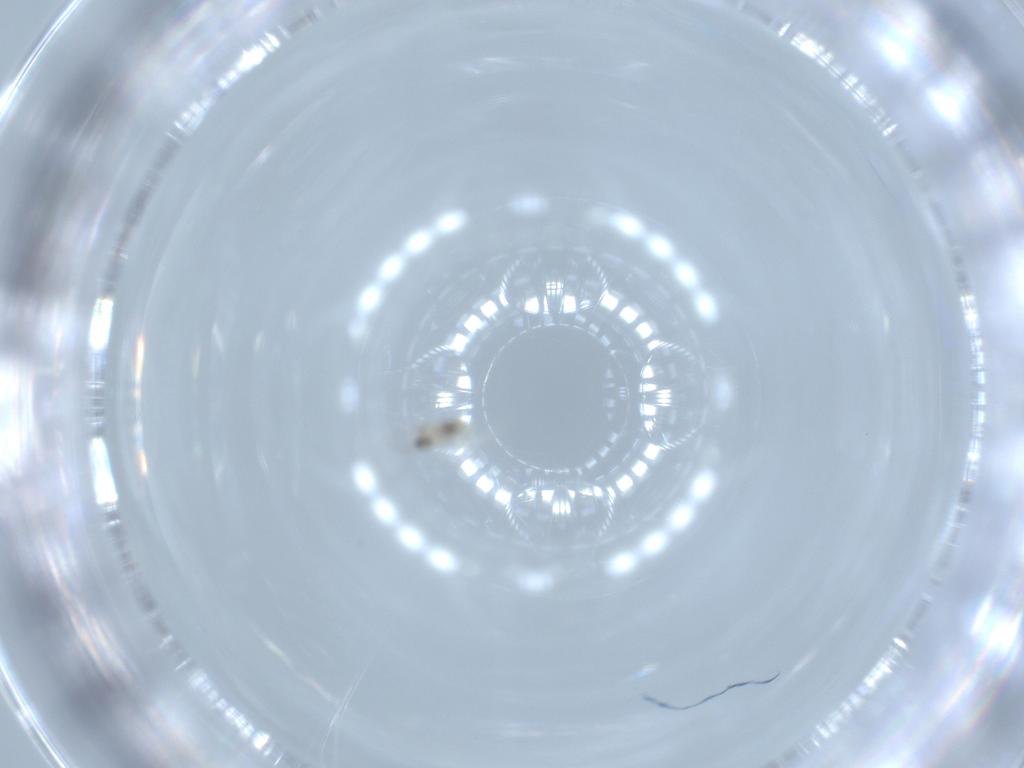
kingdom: Animalia
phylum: Arthropoda
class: Insecta
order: Diptera
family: Cecidomyiidae
